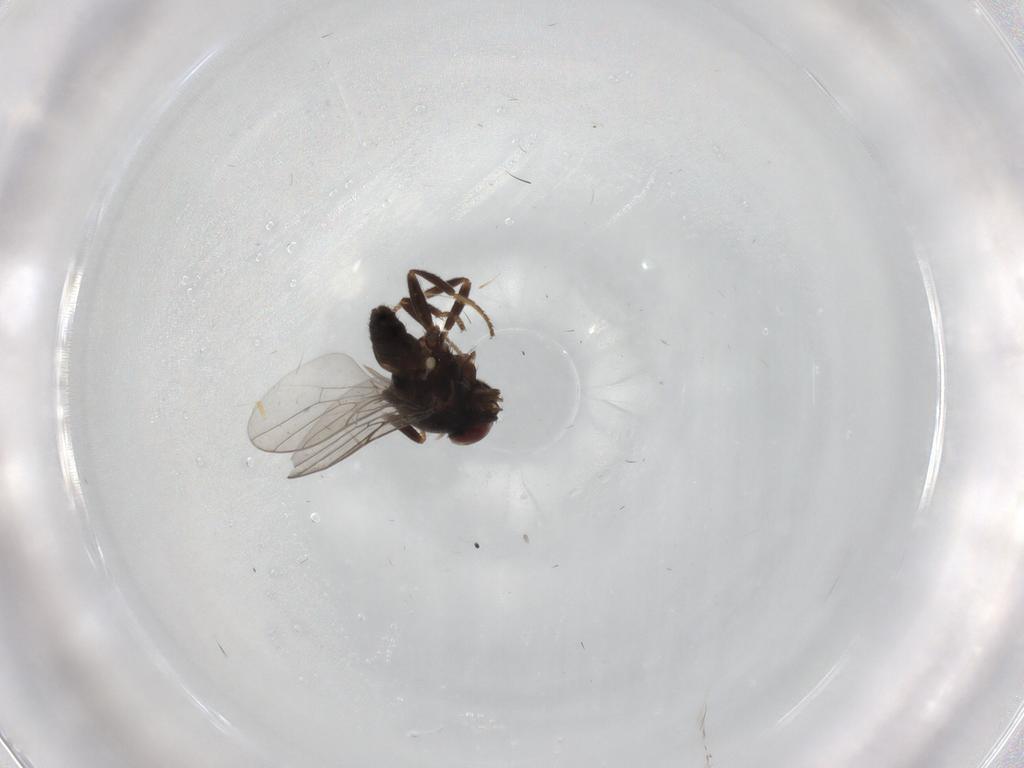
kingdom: Animalia
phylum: Arthropoda
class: Insecta
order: Diptera
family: Chloropidae
